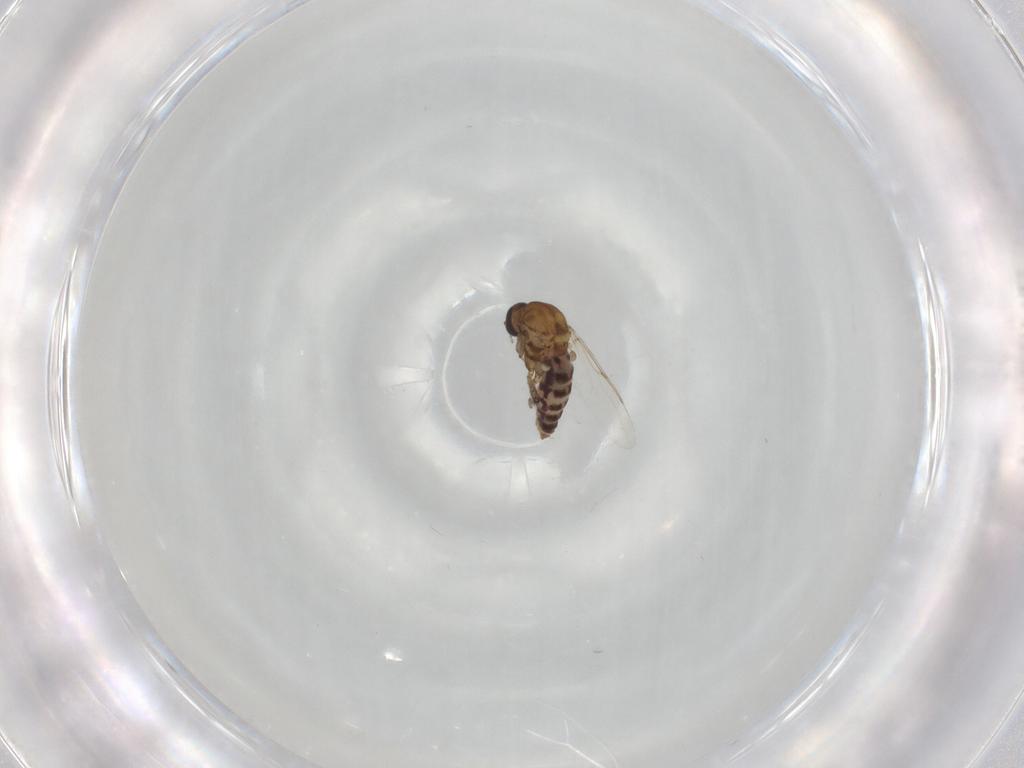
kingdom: Animalia
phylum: Arthropoda
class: Insecta
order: Diptera
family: Ceratopogonidae
